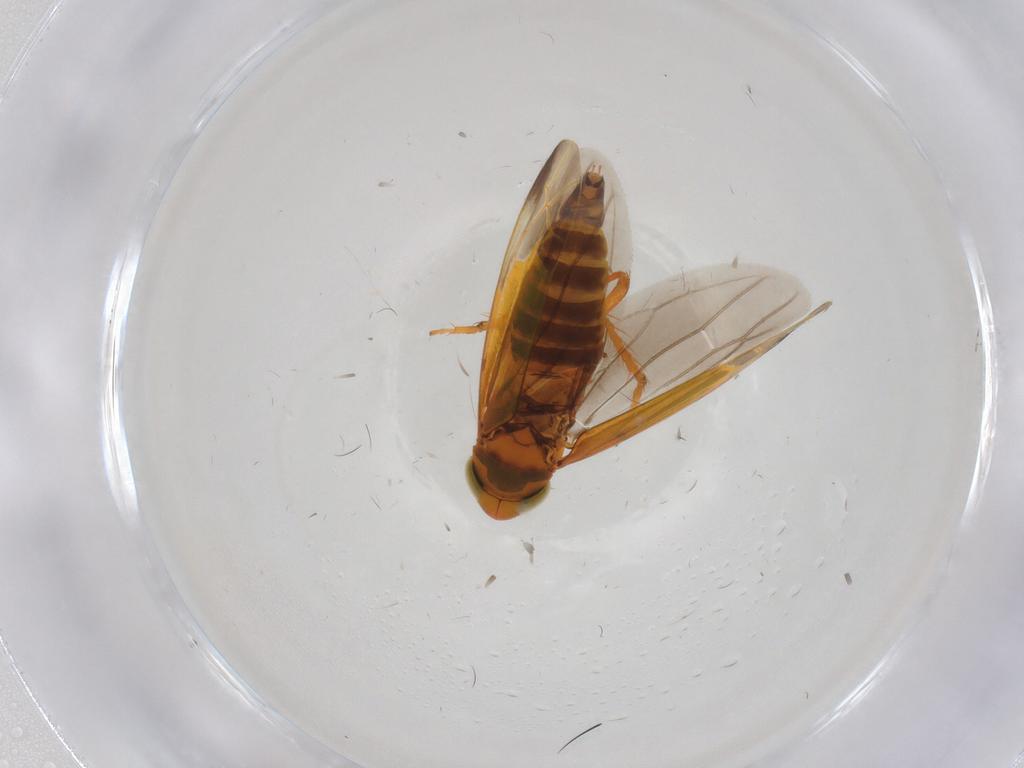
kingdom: Animalia
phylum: Arthropoda
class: Insecta
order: Hemiptera
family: Cicadellidae
